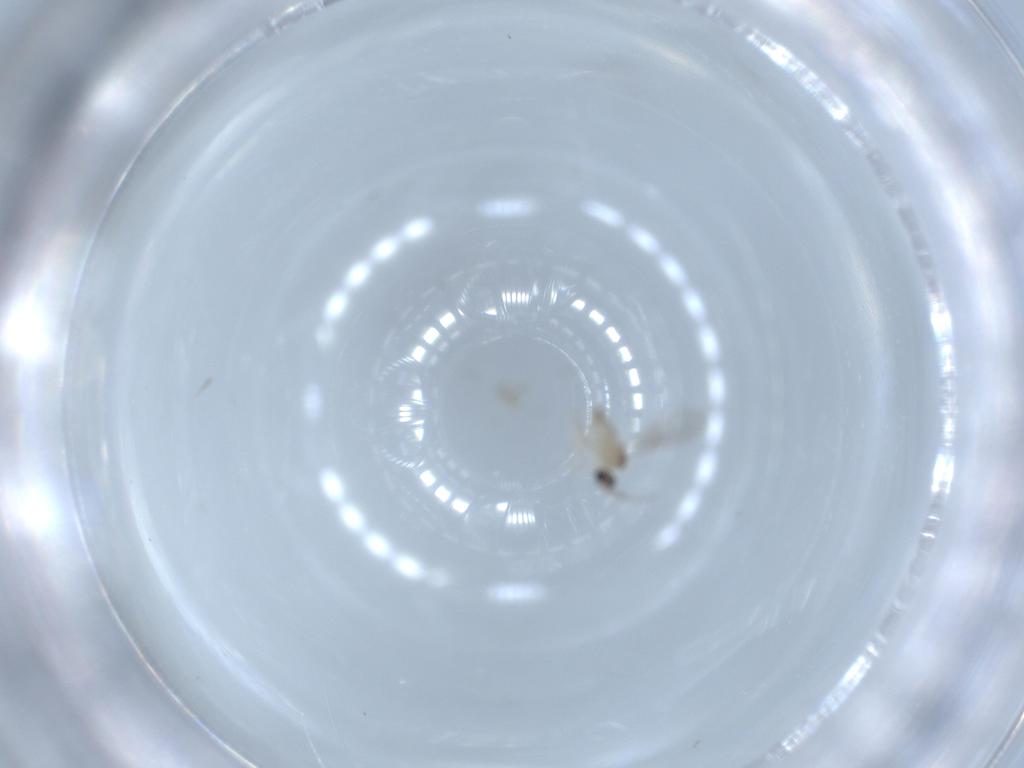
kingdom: Animalia
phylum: Arthropoda
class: Insecta
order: Diptera
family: Cecidomyiidae
